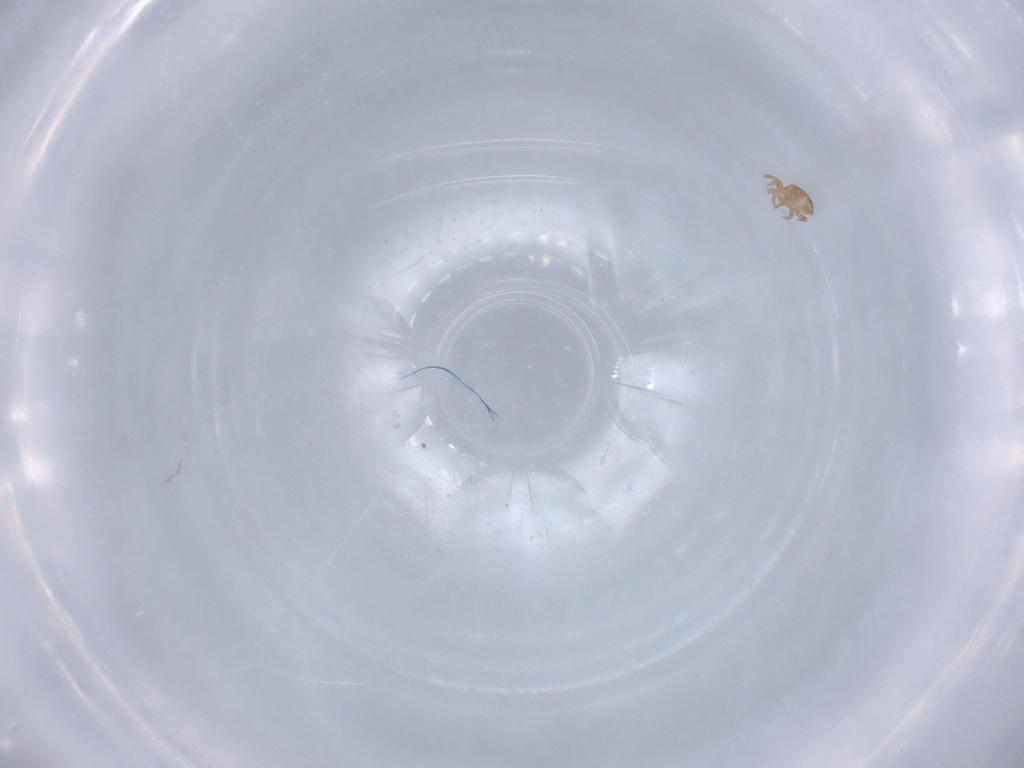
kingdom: Animalia
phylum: Arthropoda
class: Arachnida
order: Mesostigmata
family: Digamasellidae
